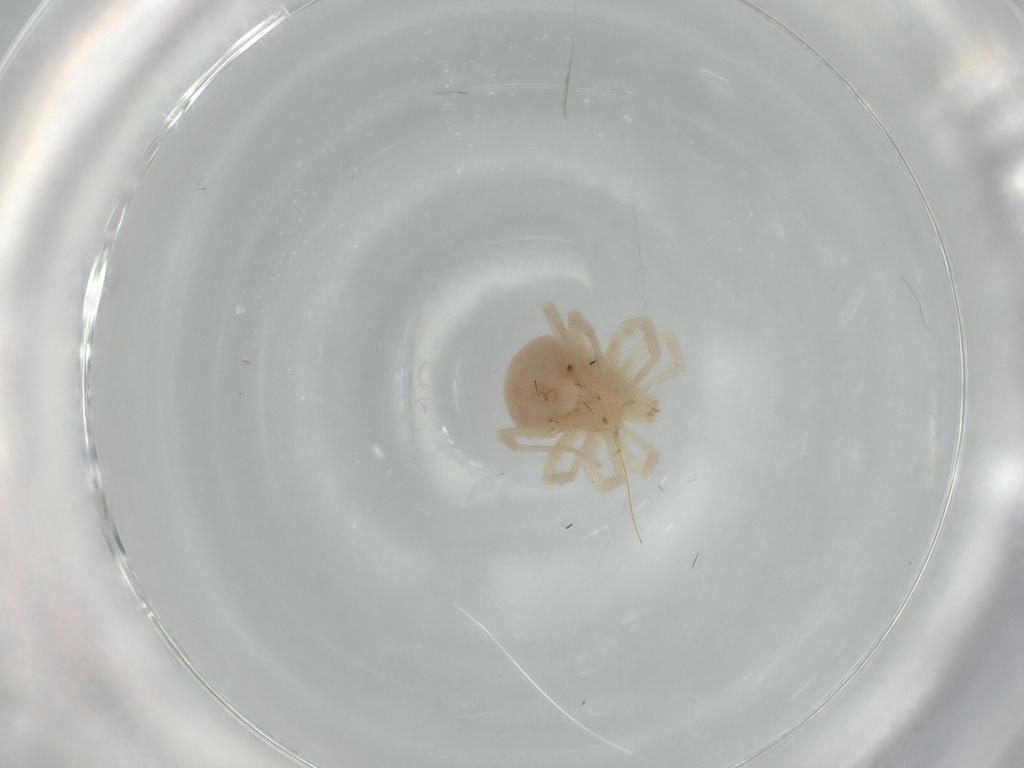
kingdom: Animalia
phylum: Arthropoda
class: Arachnida
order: Trombidiformes
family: Anystidae
